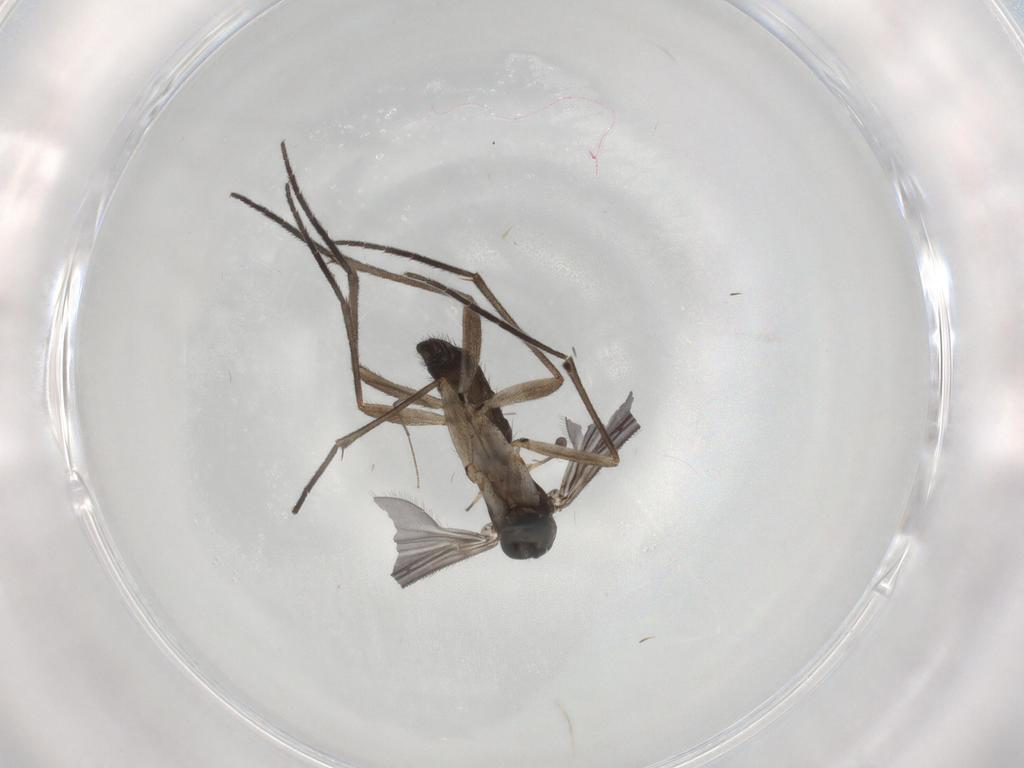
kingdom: Animalia
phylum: Arthropoda
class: Insecta
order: Diptera
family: Sciaridae
